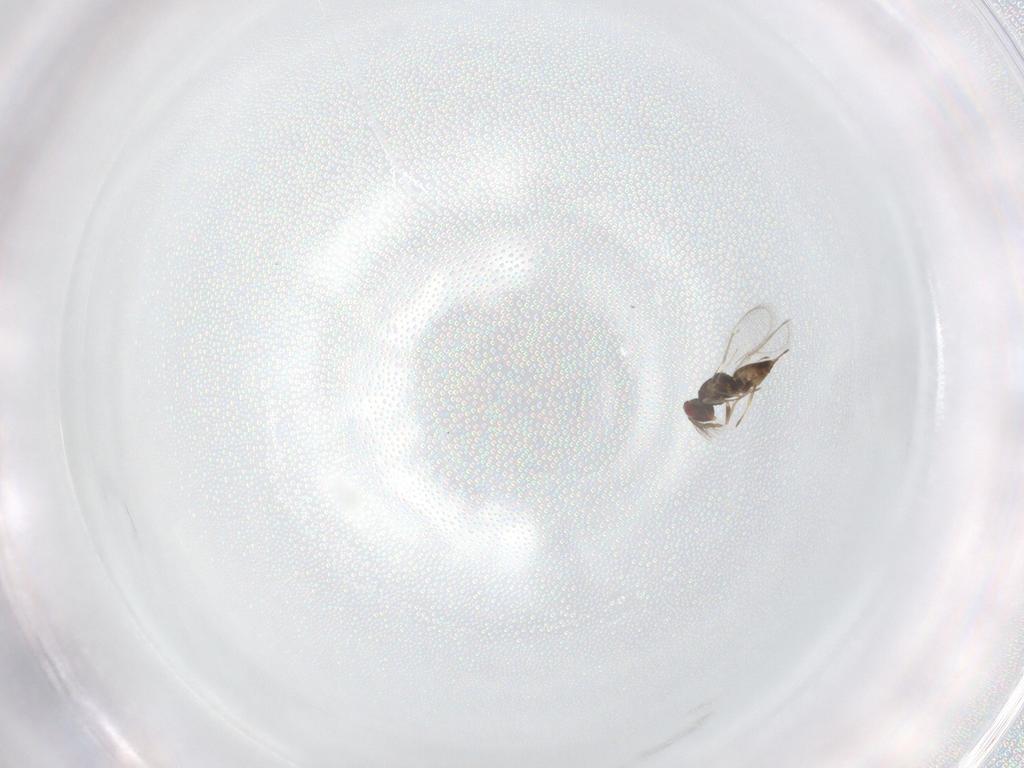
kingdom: Animalia
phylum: Arthropoda
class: Insecta
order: Hymenoptera
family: Eulophidae
